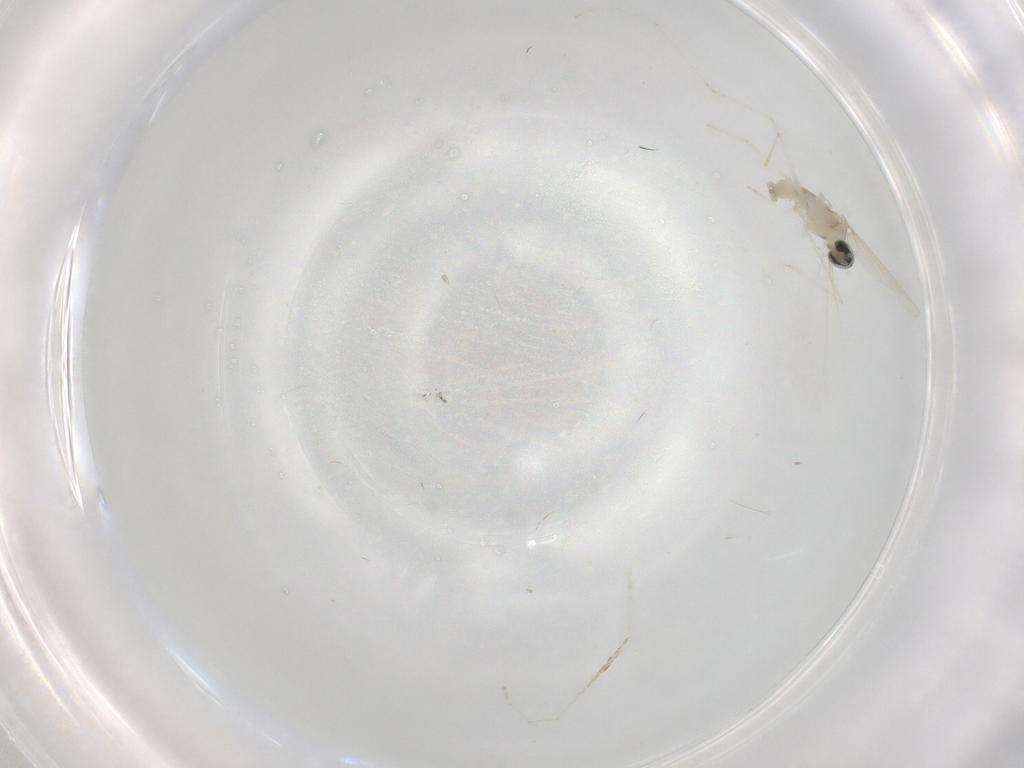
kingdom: Animalia
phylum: Arthropoda
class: Insecta
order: Diptera
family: Cecidomyiidae
